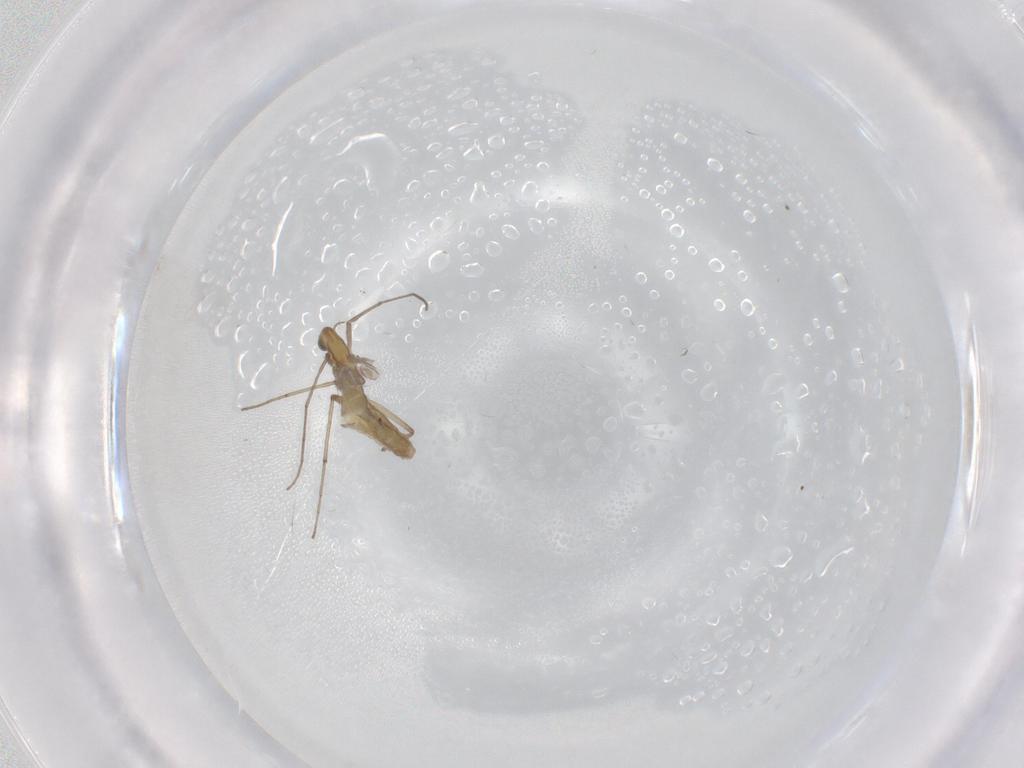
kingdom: Animalia
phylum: Arthropoda
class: Insecta
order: Diptera
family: Chironomidae
